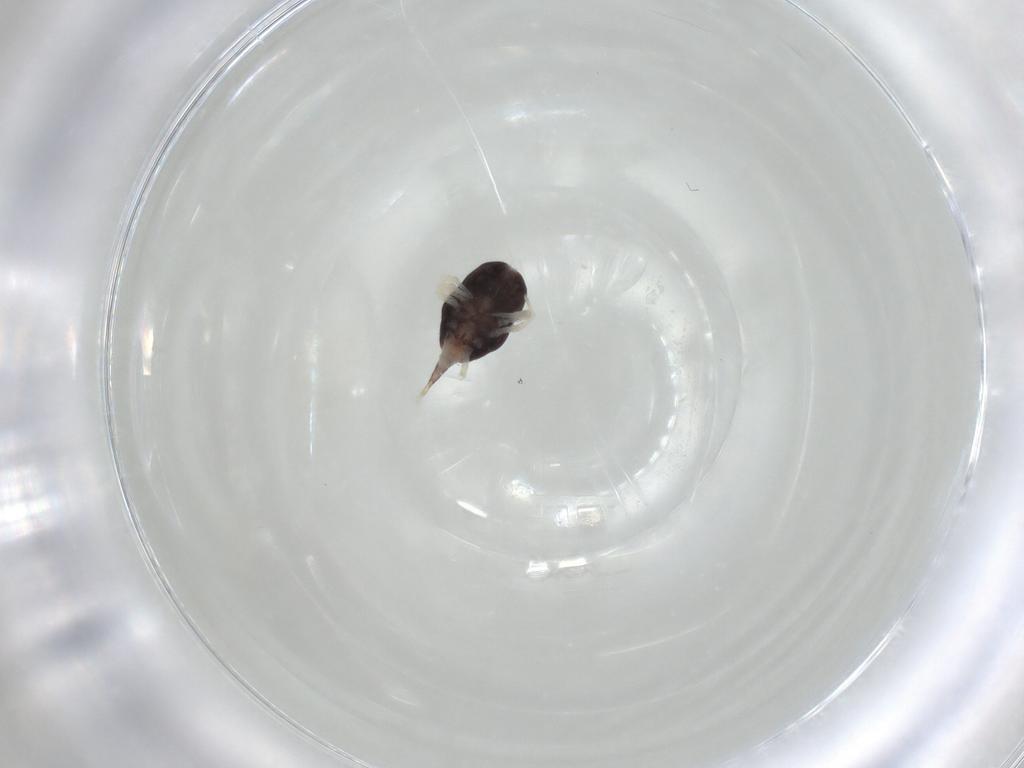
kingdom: Animalia
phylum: Arthropoda
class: Arachnida
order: Trombidiformes
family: Bdellidae
